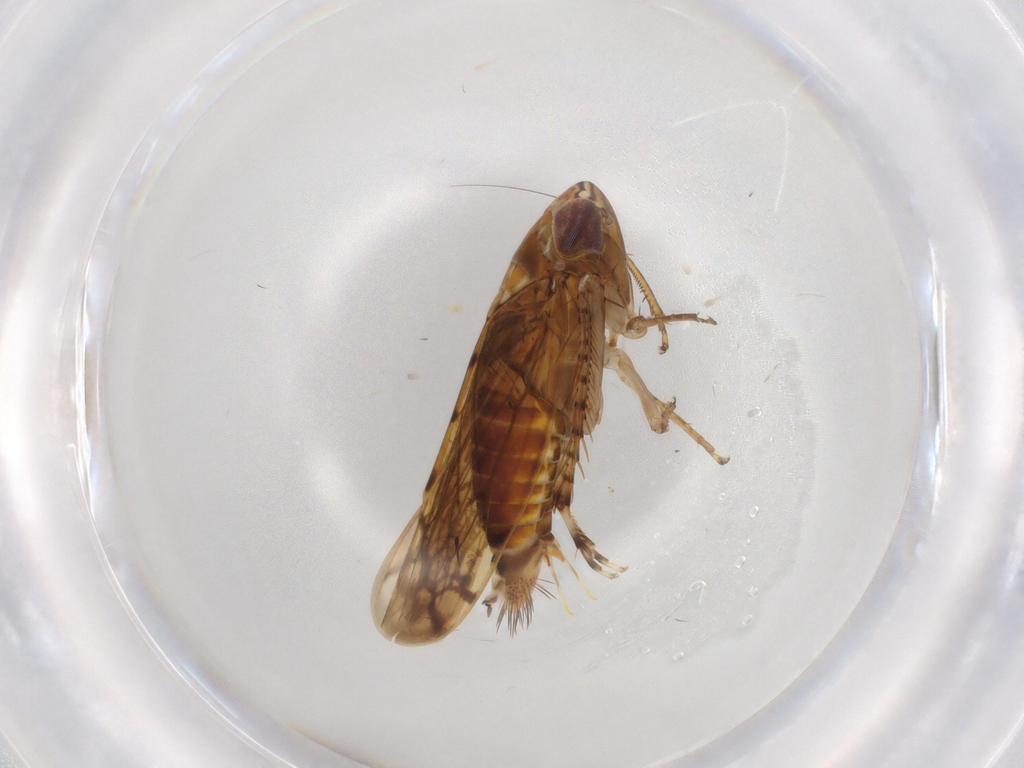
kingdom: Animalia
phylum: Arthropoda
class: Insecta
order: Hemiptera
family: Cicadellidae
